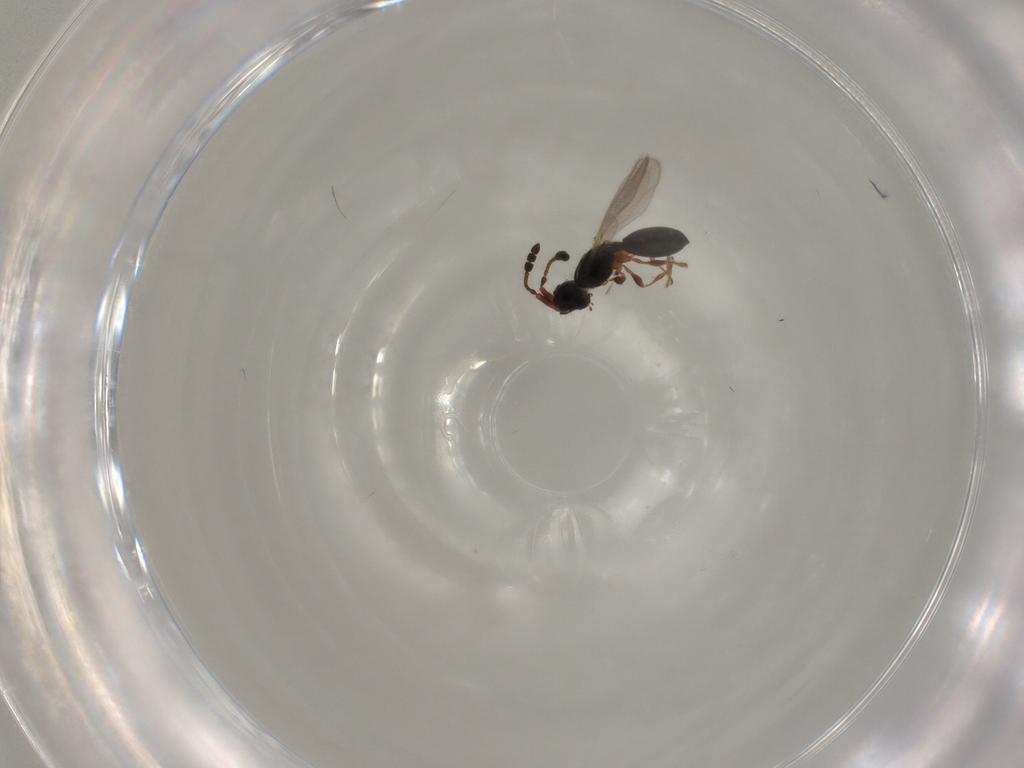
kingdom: Animalia
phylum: Arthropoda
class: Insecta
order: Hymenoptera
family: Diapriidae
